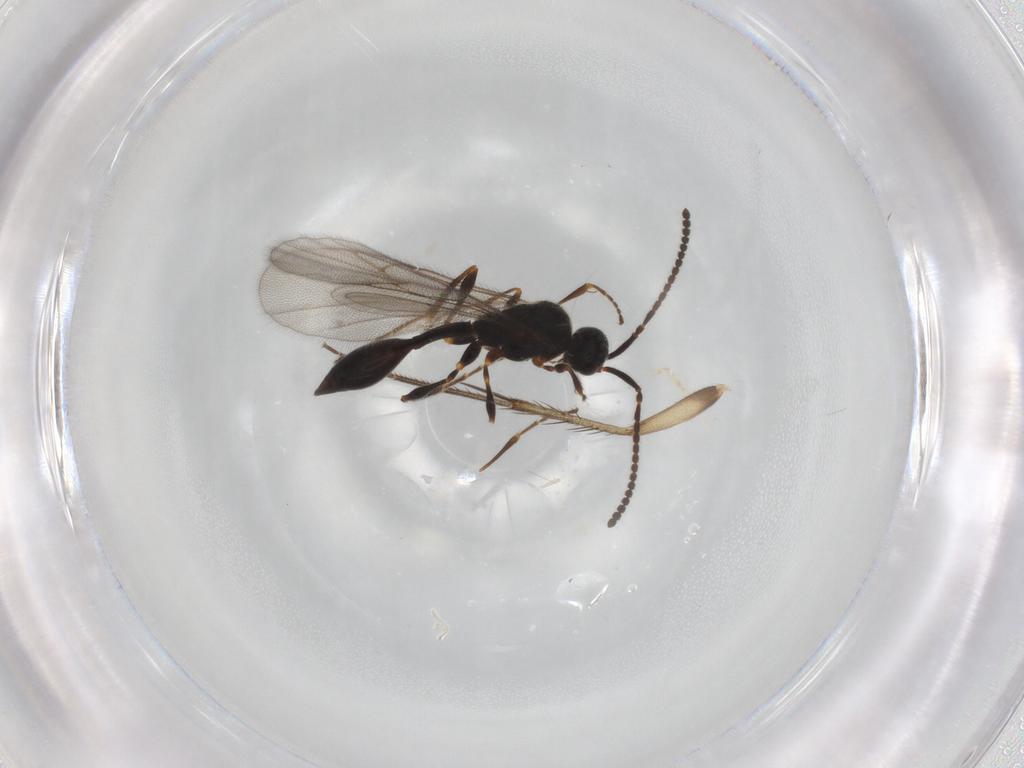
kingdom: Animalia
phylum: Arthropoda
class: Insecta
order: Hymenoptera
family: Diapriidae
